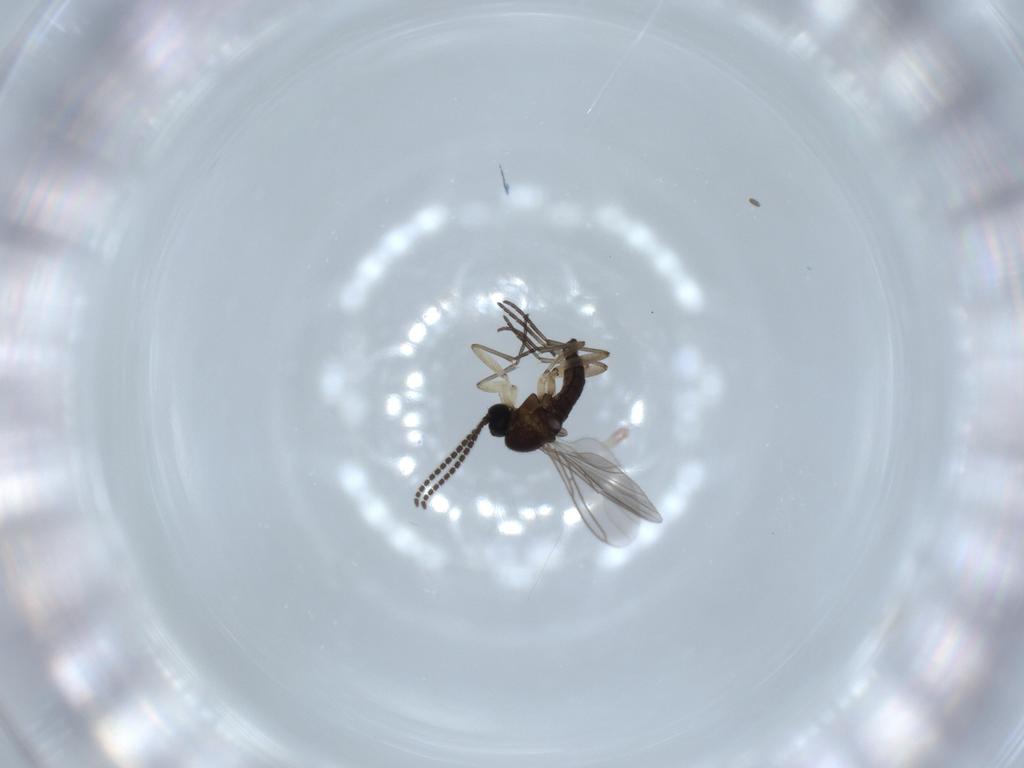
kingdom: Animalia
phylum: Arthropoda
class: Insecta
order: Diptera
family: Sciaridae
